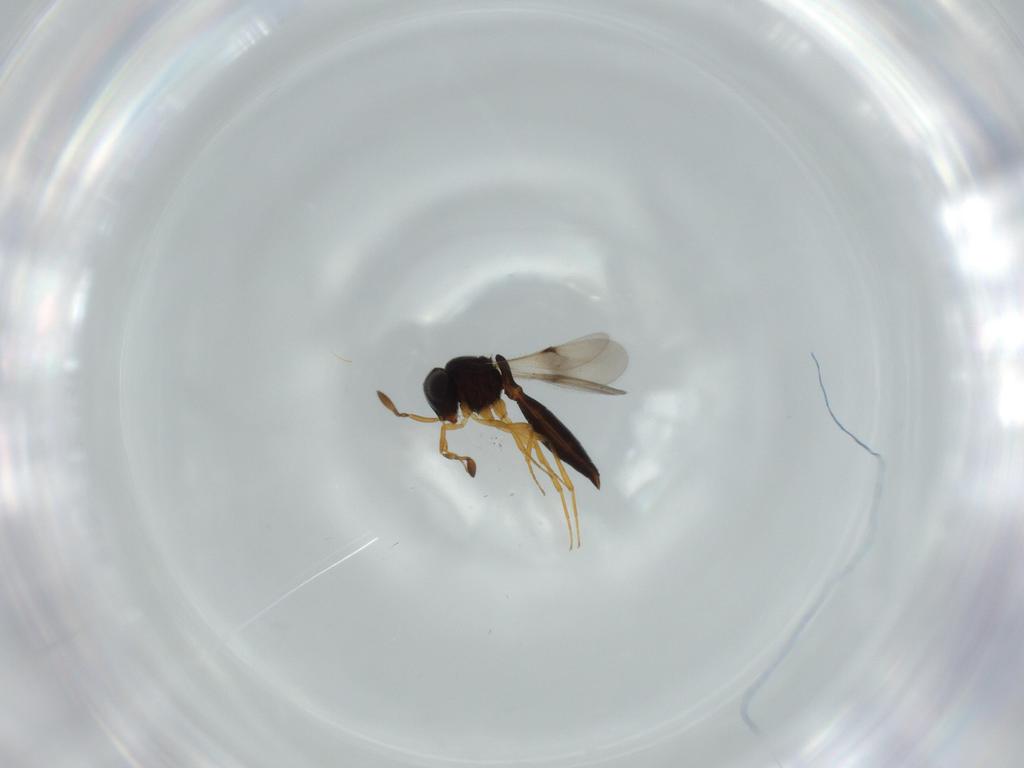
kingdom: Animalia
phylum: Arthropoda
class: Insecta
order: Hymenoptera
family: Scelionidae
